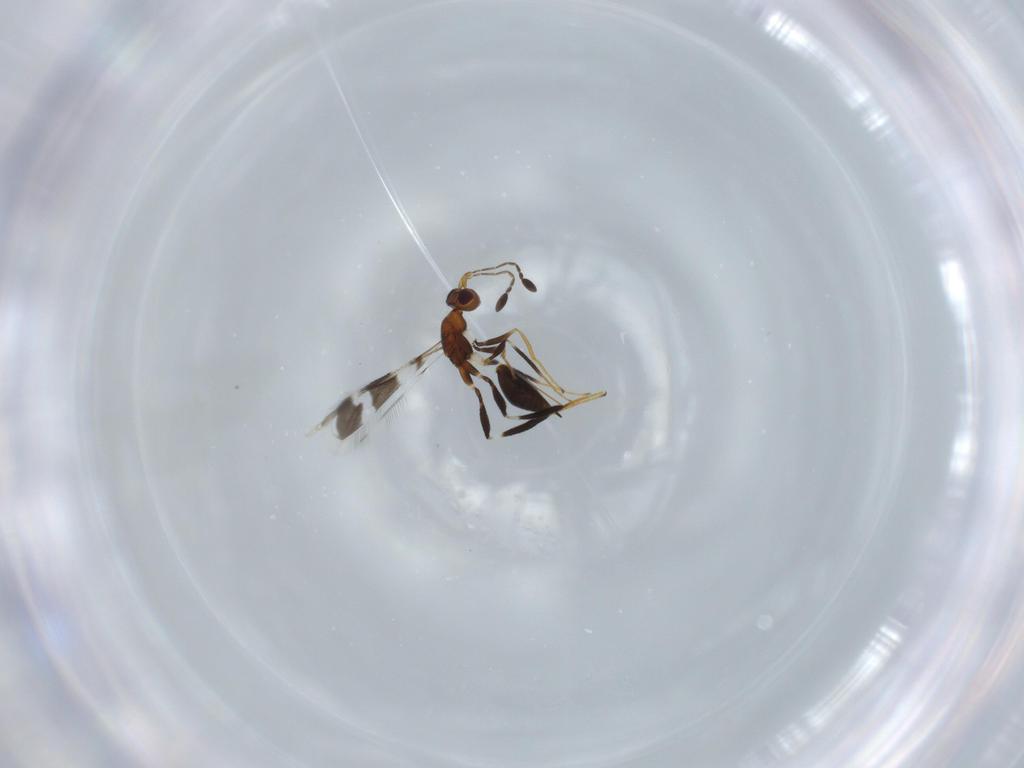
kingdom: Animalia
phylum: Arthropoda
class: Insecta
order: Hymenoptera
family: Mymaridae
